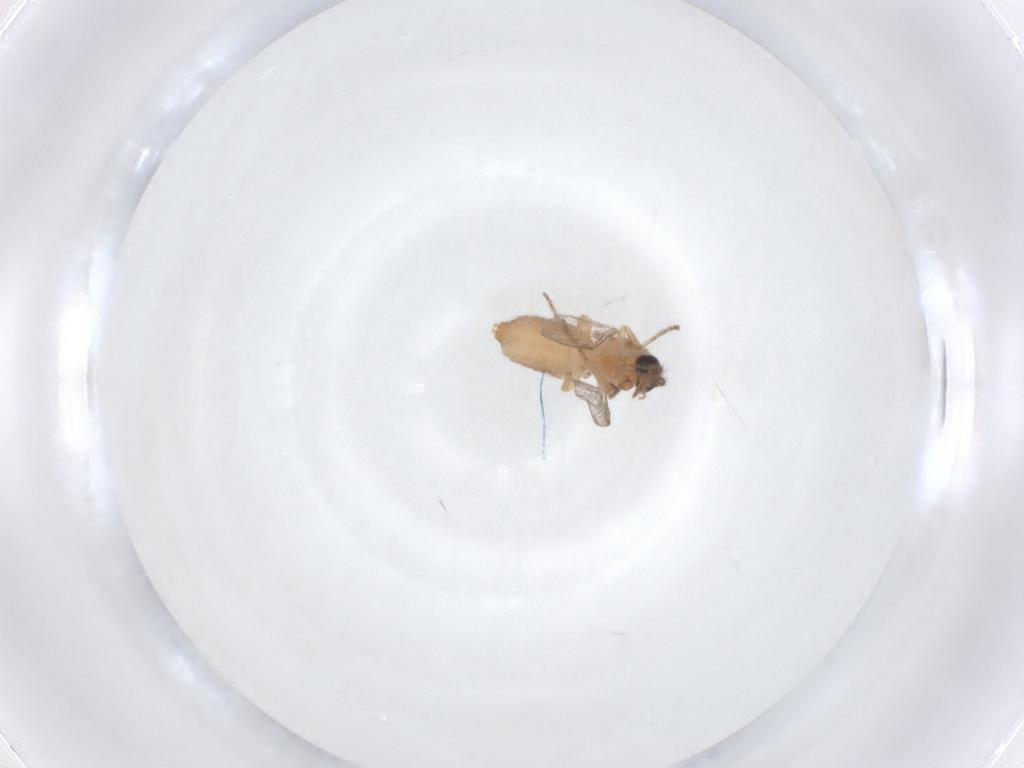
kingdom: Animalia
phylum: Arthropoda
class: Insecta
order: Diptera
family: Ceratopogonidae
